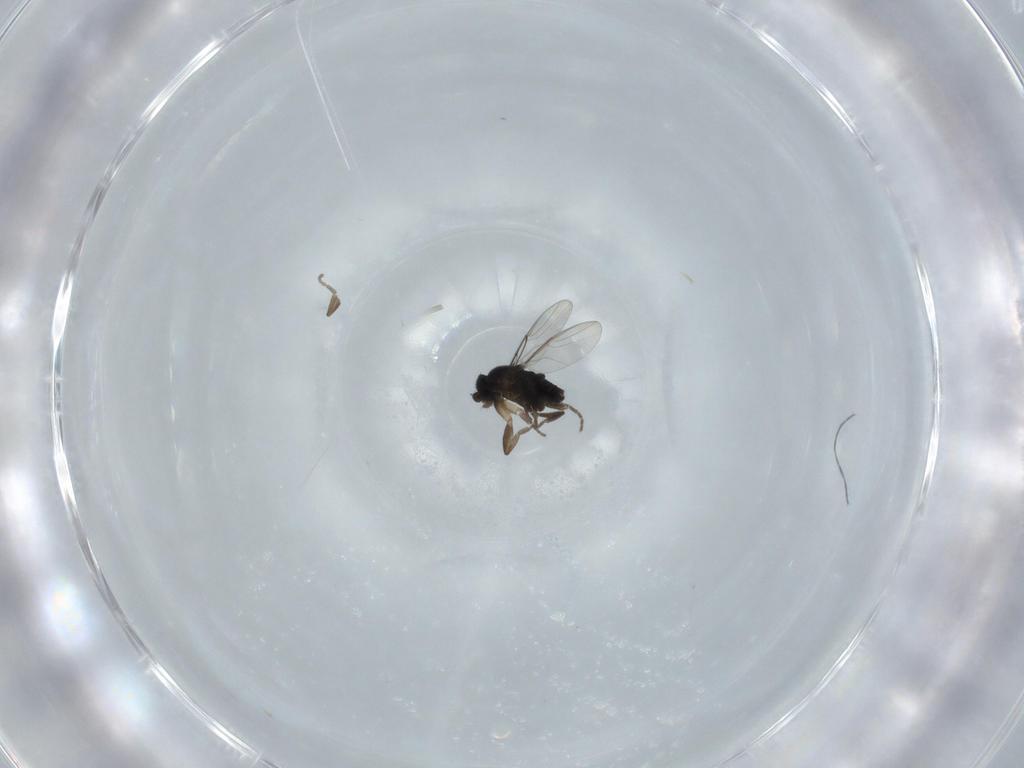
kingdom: Animalia
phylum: Arthropoda
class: Insecta
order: Diptera
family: Phoridae
